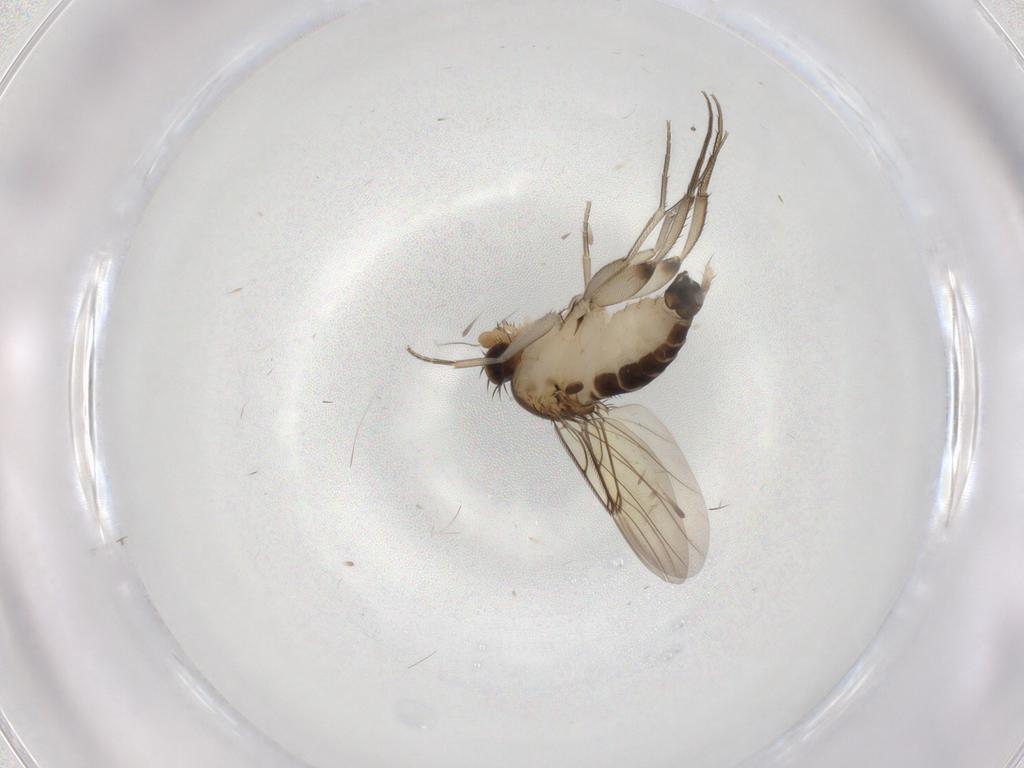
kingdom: Animalia
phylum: Arthropoda
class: Insecta
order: Diptera
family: Phoridae
